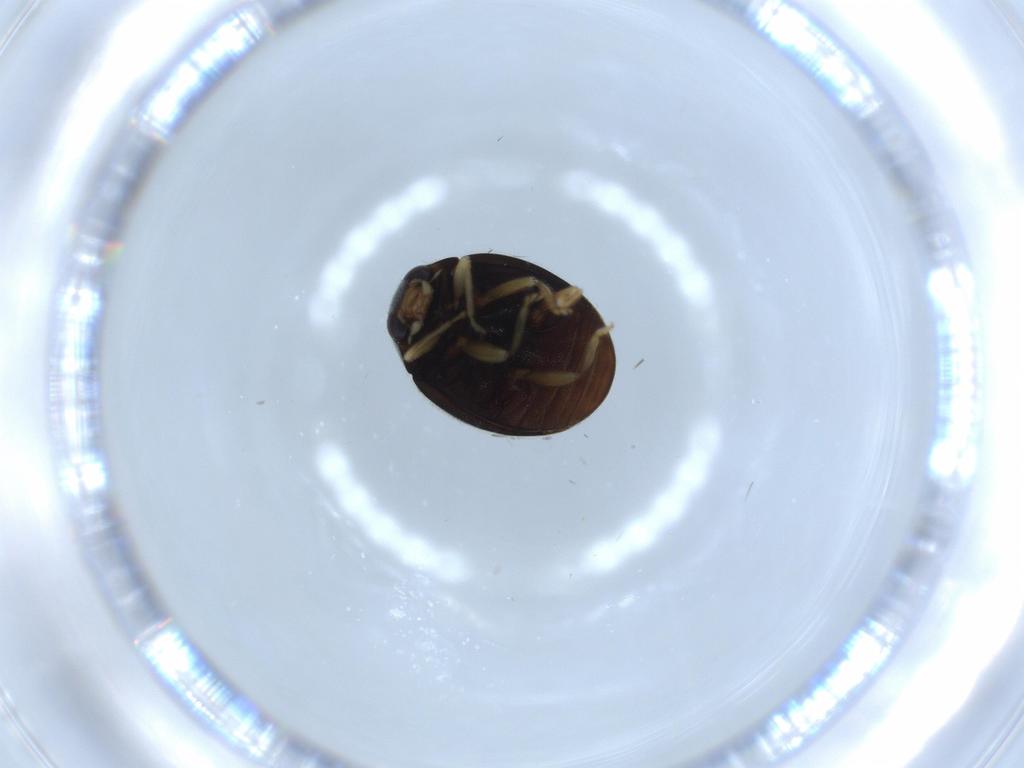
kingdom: Animalia
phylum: Arthropoda
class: Insecta
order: Coleoptera
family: Coccinellidae
